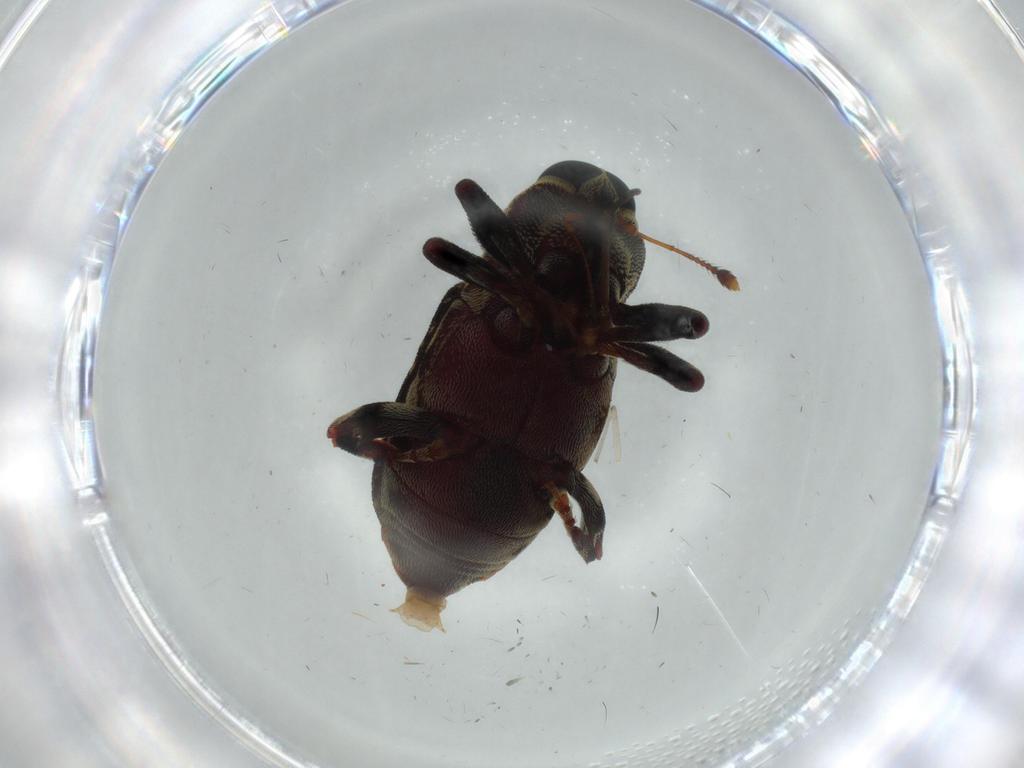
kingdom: Animalia
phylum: Arthropoda
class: Insecta
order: Coleoptera
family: Curculionidae
